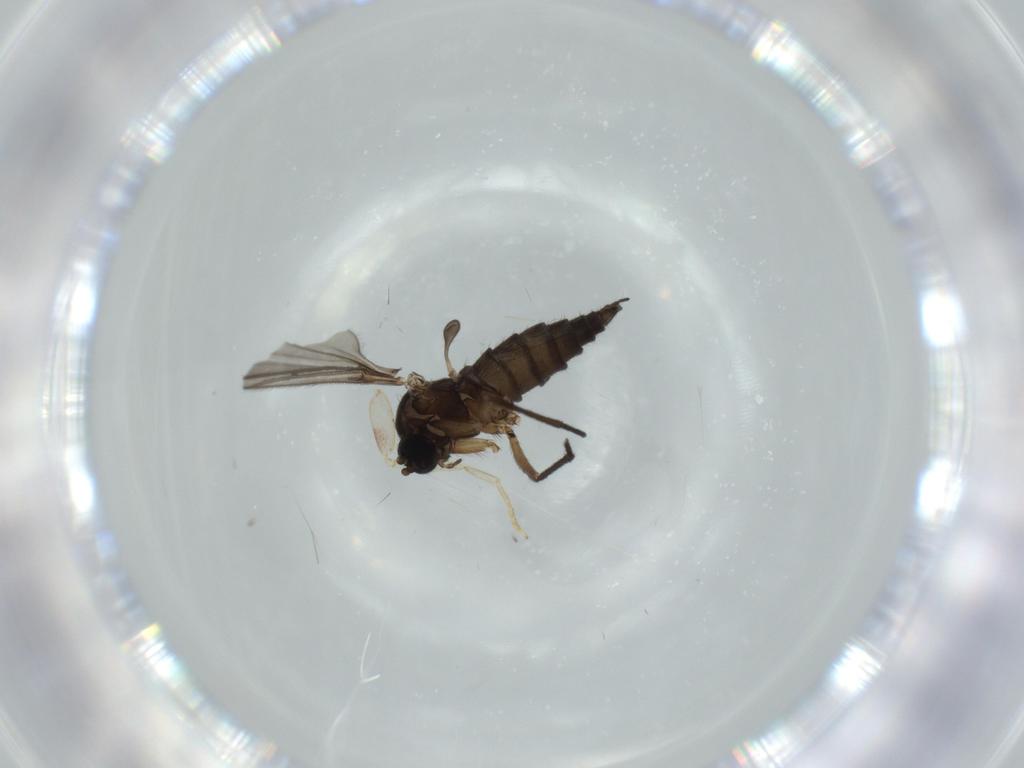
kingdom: Animalia
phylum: Arthropoda
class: Insecta
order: Diptera
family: Sciaridae
